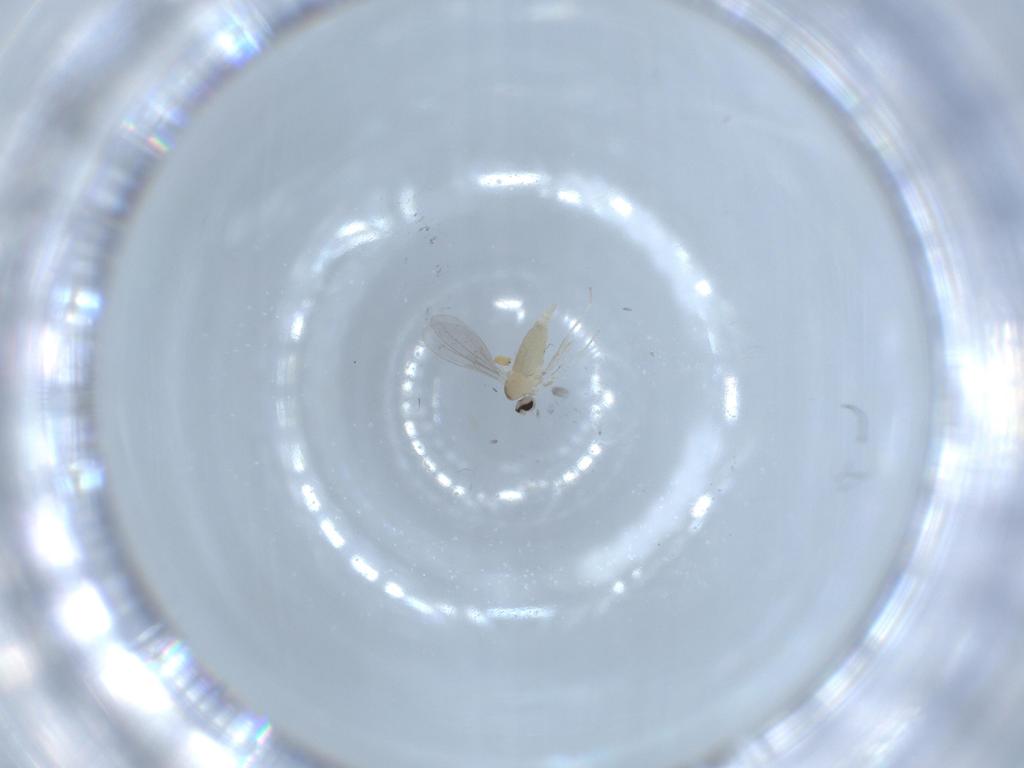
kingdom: Animalia
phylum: Arthropoda
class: Insecta
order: Diptera
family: Cecidomyiidae
